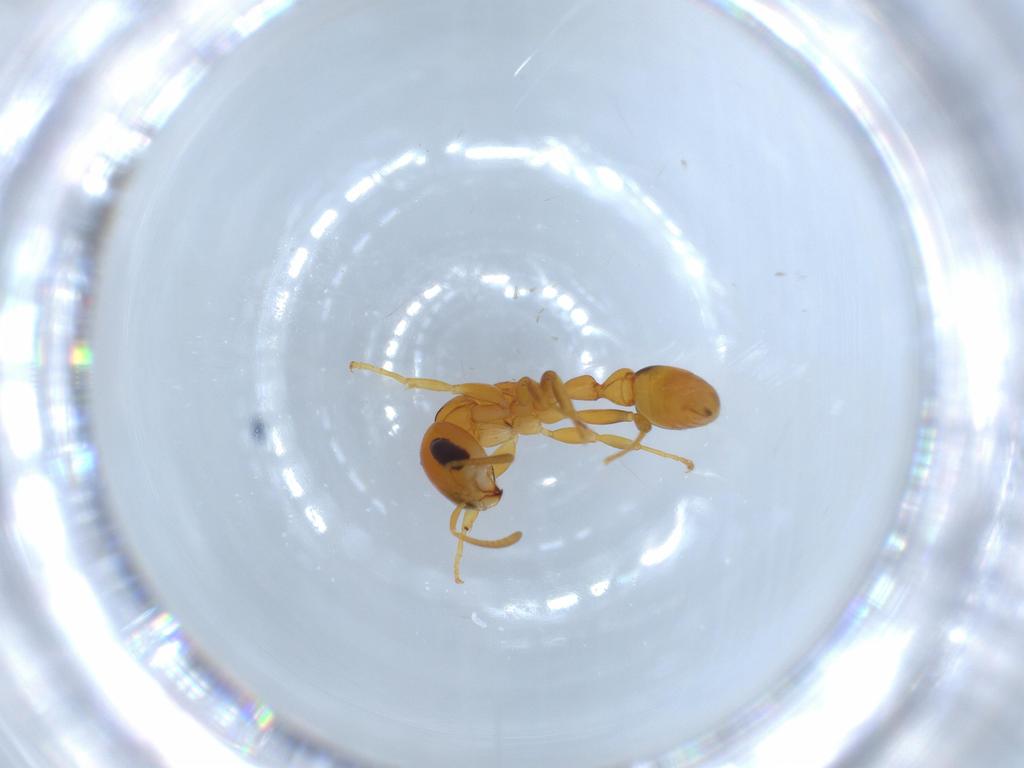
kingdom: Animalia
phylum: Arthropoda
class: Insecta
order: Hymenoptera
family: Formicidae
